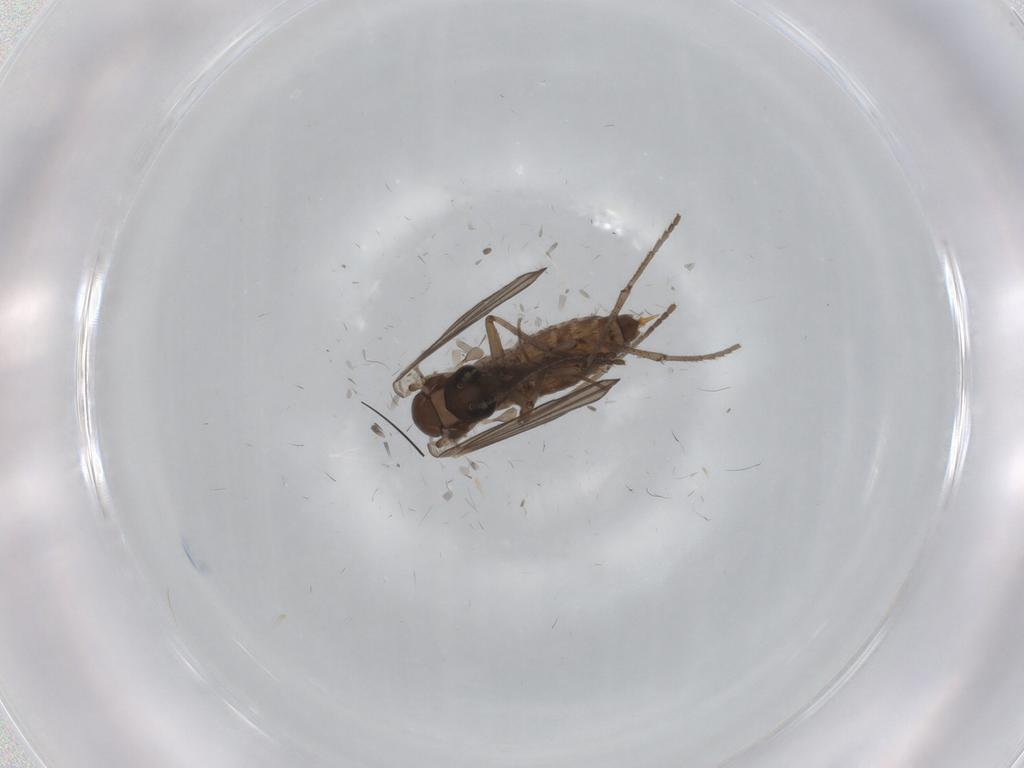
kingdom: Animalia
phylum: Arthropoda
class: Insecta
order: Diptera
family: Chironomidae
